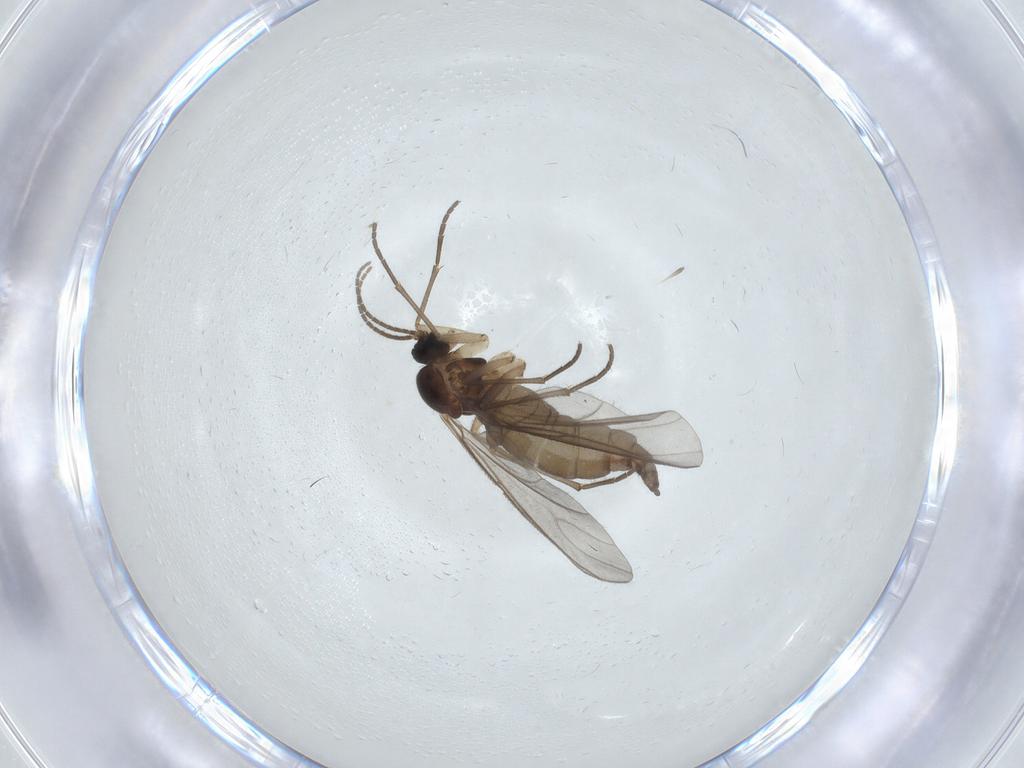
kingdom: Animalia
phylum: Arthropoda
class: Insecta
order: Diptera
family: Sciaridae
